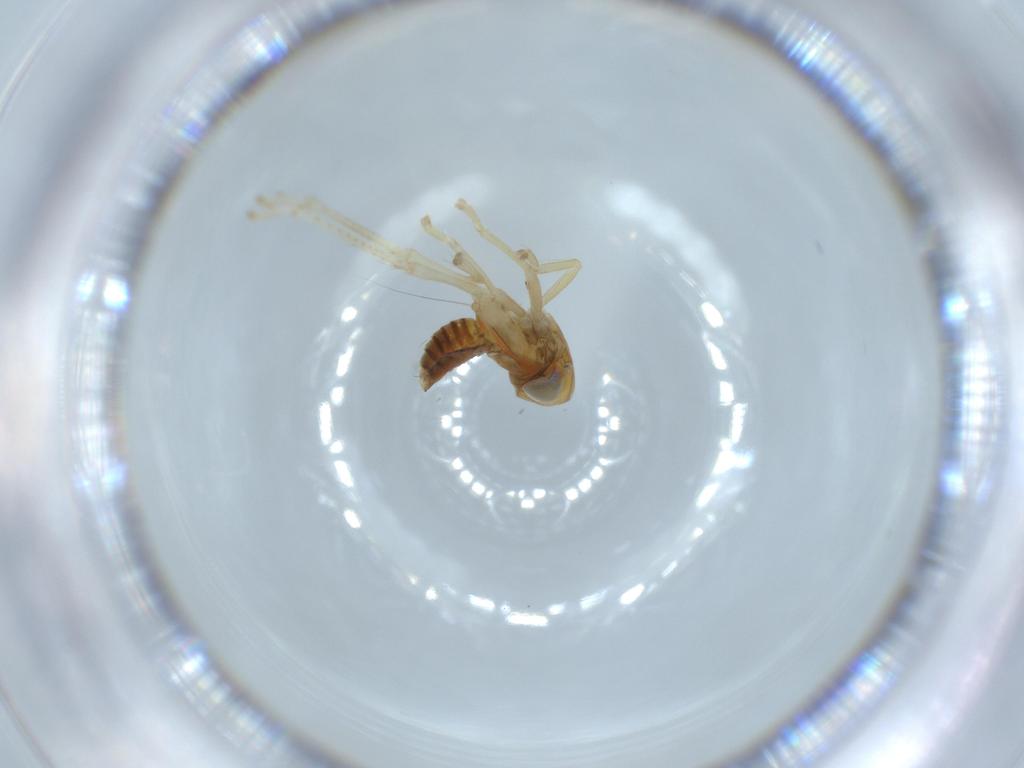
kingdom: Animalia
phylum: Arthropoda
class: Insecta
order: Hemiptera
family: Cicadellidae
